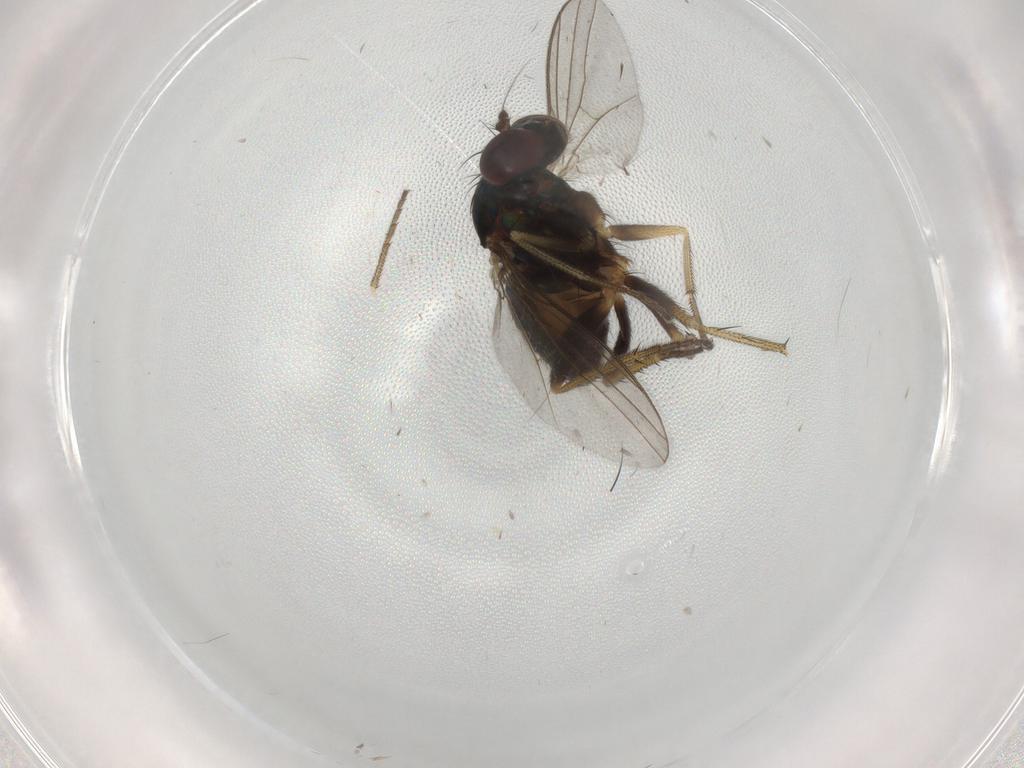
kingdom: Animalia
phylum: Arthropoda
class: Insecta
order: Diptera
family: Dolichopodidae
